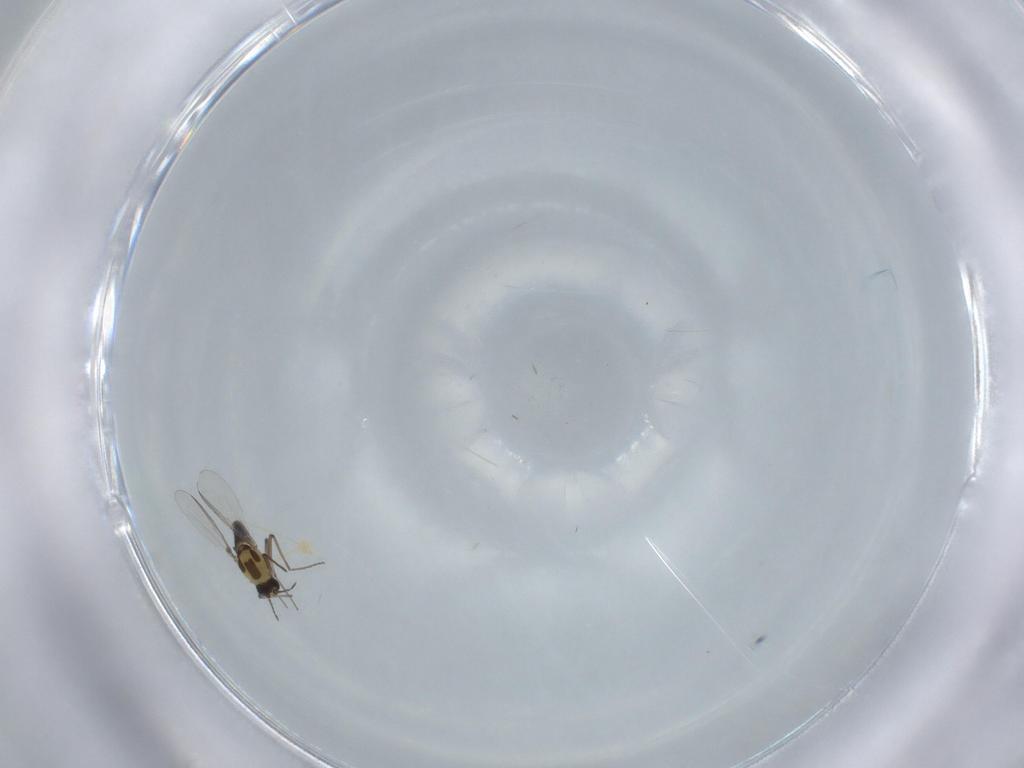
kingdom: Animalia
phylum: Arthropoda
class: Insecta
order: Diptera
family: Chironomidae
